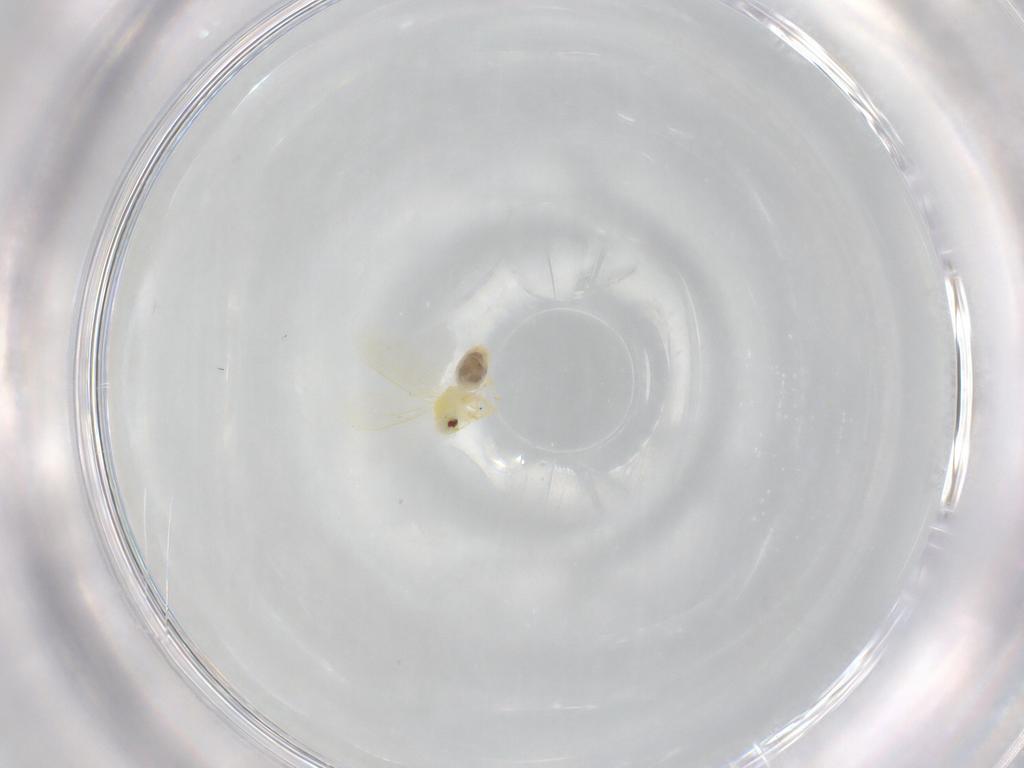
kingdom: Animalia
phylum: Arthropoda
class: Insecta
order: Hemiptera
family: Aleyrodidae
